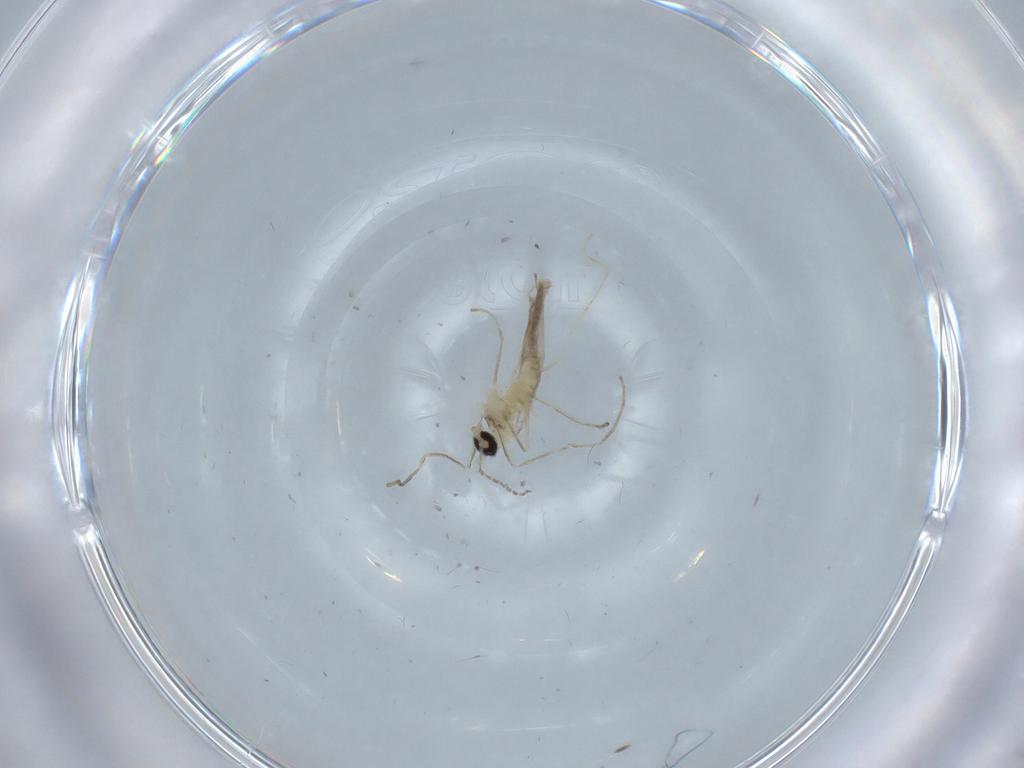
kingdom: Animalia
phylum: Arthropoda
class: Insecta
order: Diptera
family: Cecidomyiidae
